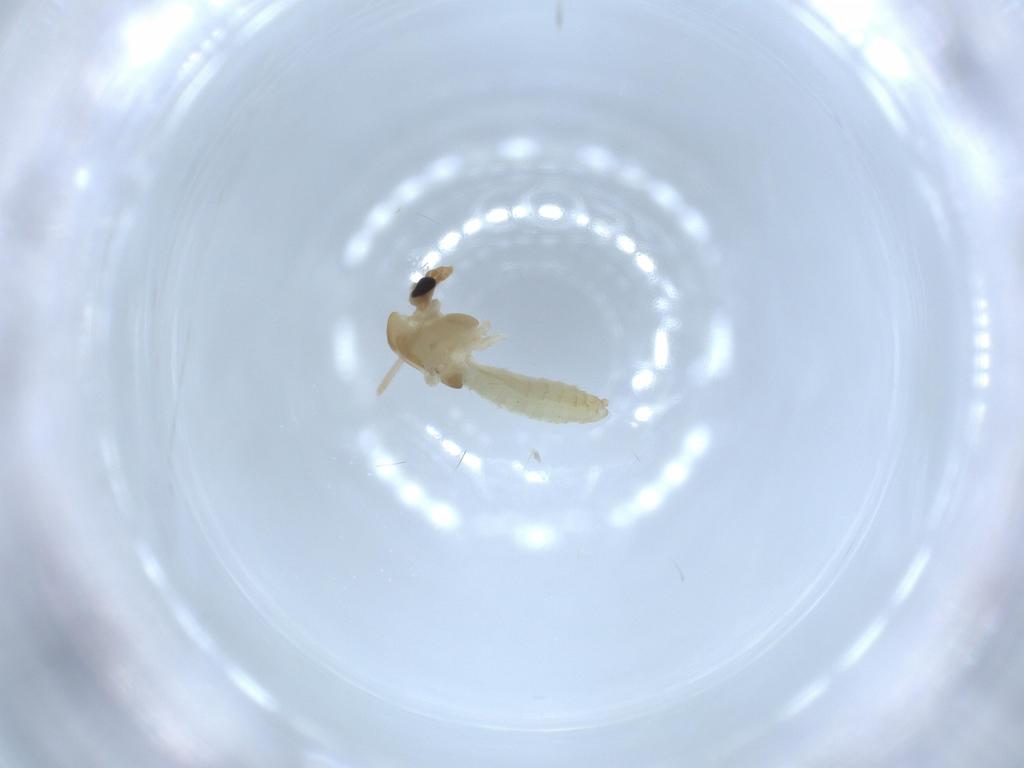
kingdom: Animalia
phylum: Arthropoda
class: Insecta
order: Diptera
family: Chironomidae
